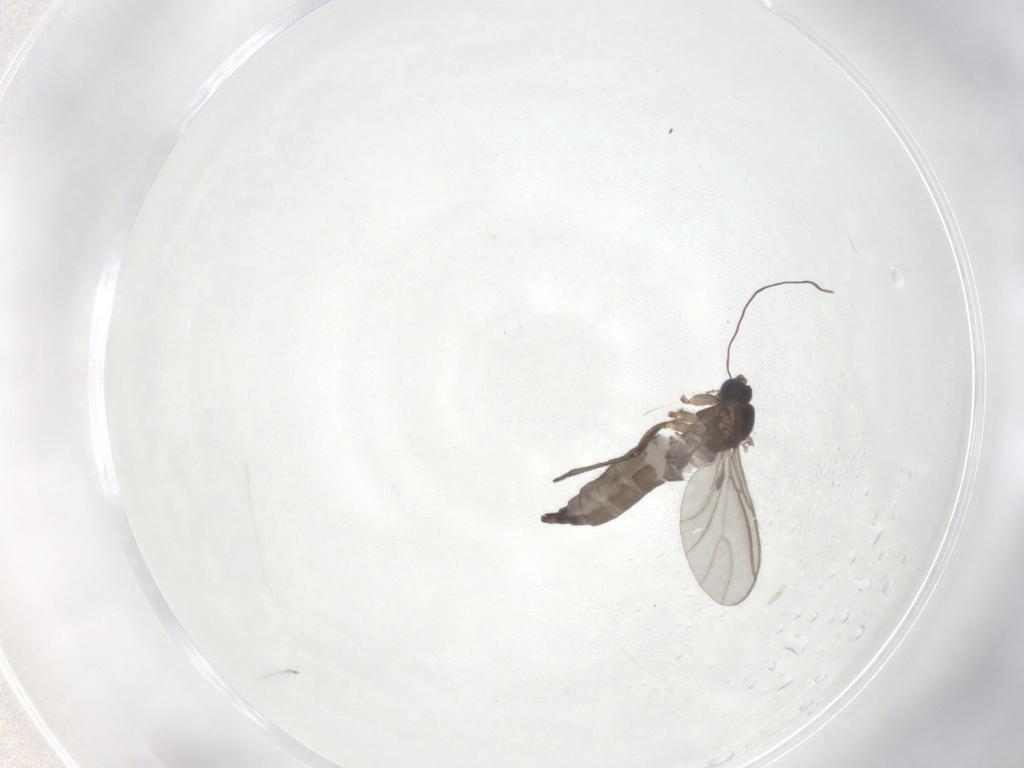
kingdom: Animalia
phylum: Arthropoda
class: Insecta
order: Diptera
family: Sciaridae
